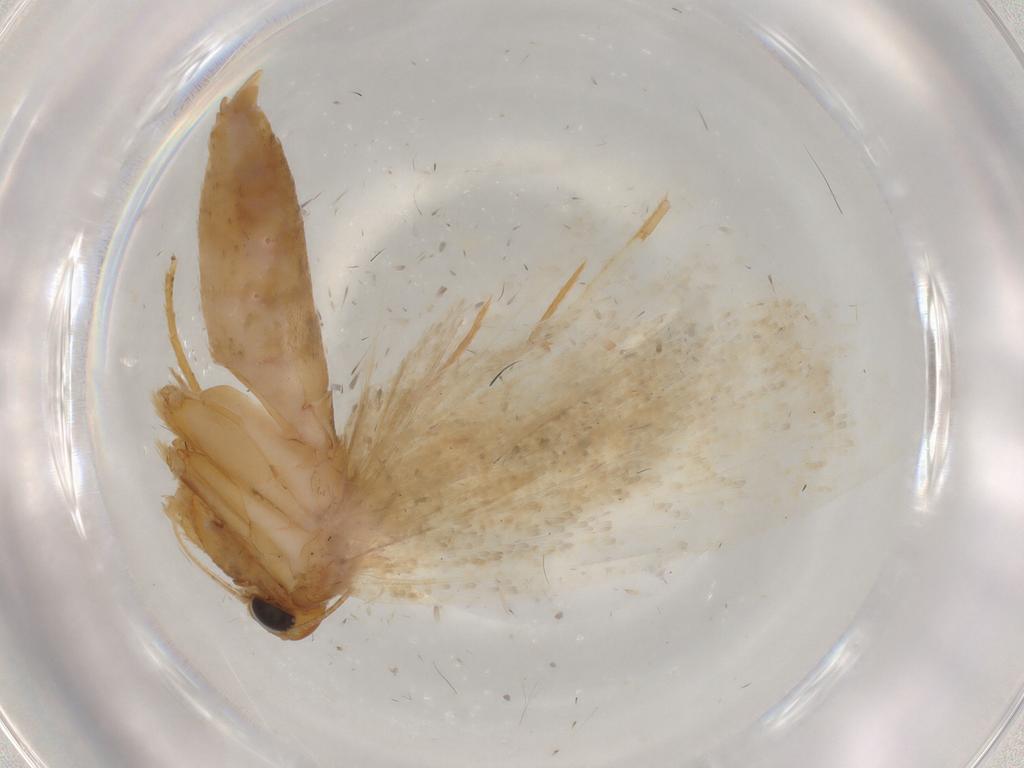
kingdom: Animalia
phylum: Arthropoda
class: Insecta
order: Lepidoptera
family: Gelechiidae
